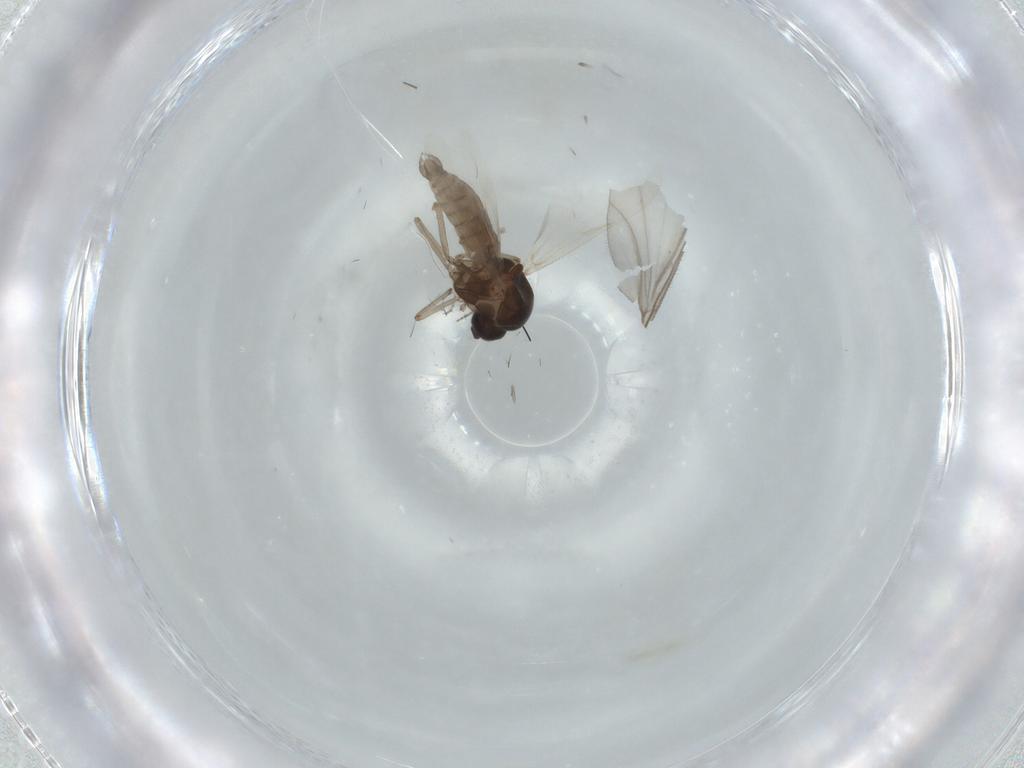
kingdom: Animalia
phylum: Arthropoda
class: Insecta
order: Diptera
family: Ceratopogonidae
